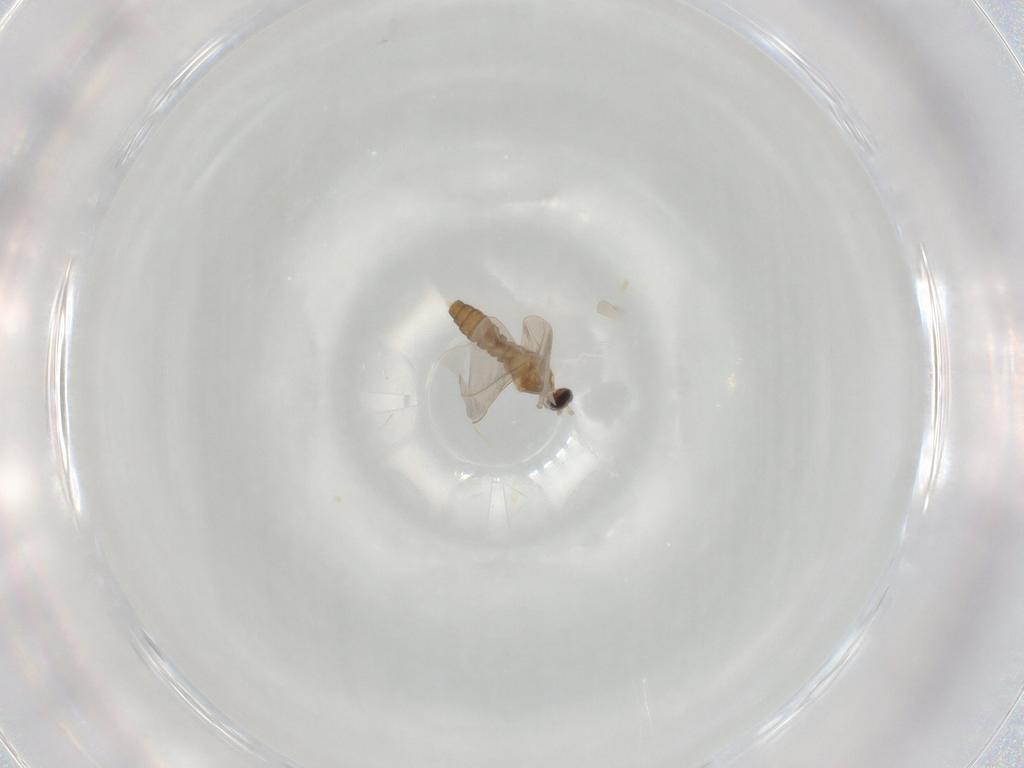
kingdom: Animalia
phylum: Arthropoda
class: Insecta
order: Diptera
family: Cecidomyiidae
